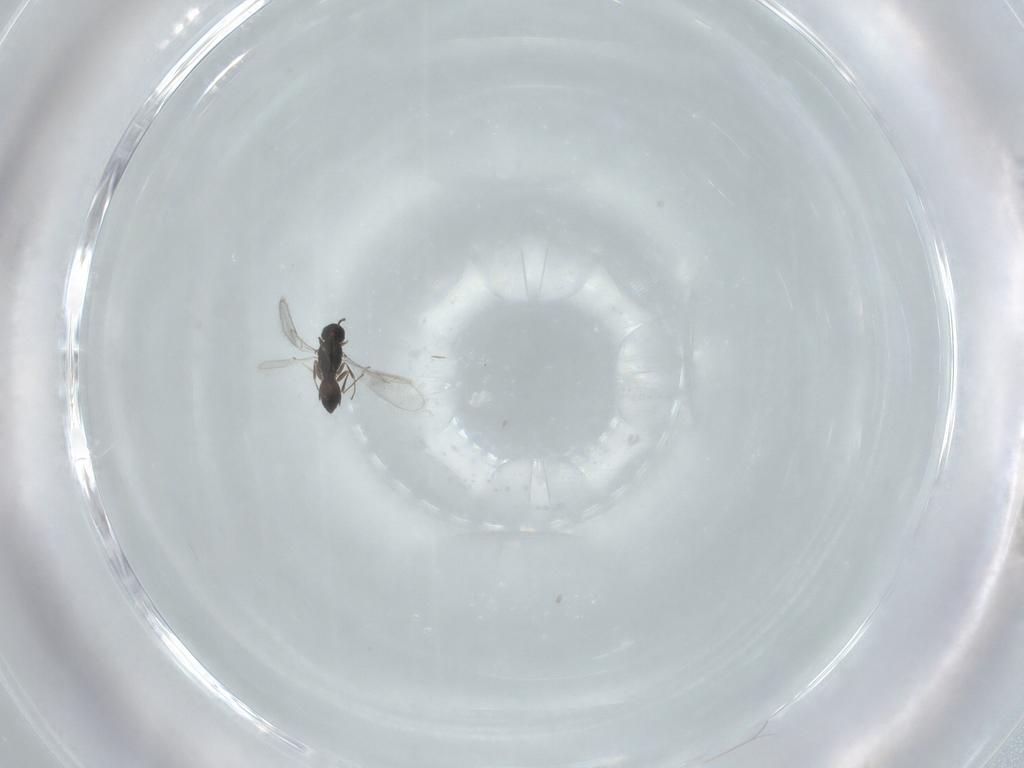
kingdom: Animalia
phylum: Arthropoda
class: Insecta
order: Hymenoptera
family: Scelionidae
